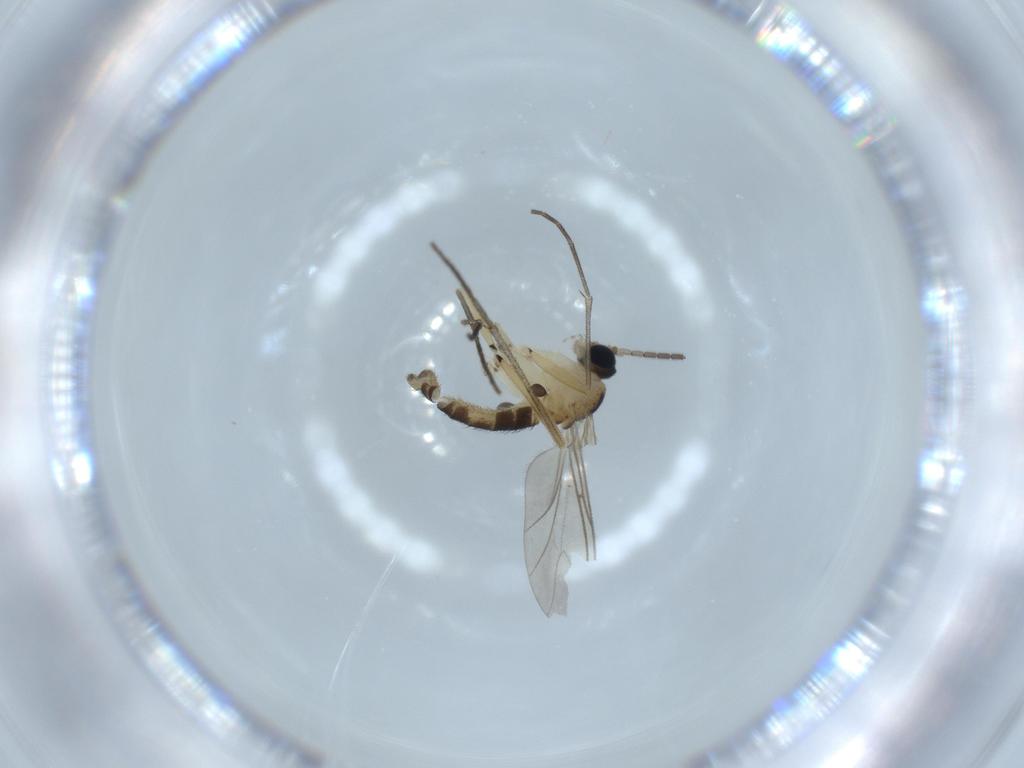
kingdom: Animalia
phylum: Arthropoda
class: Insecta
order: Diptera
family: Sciaridae
